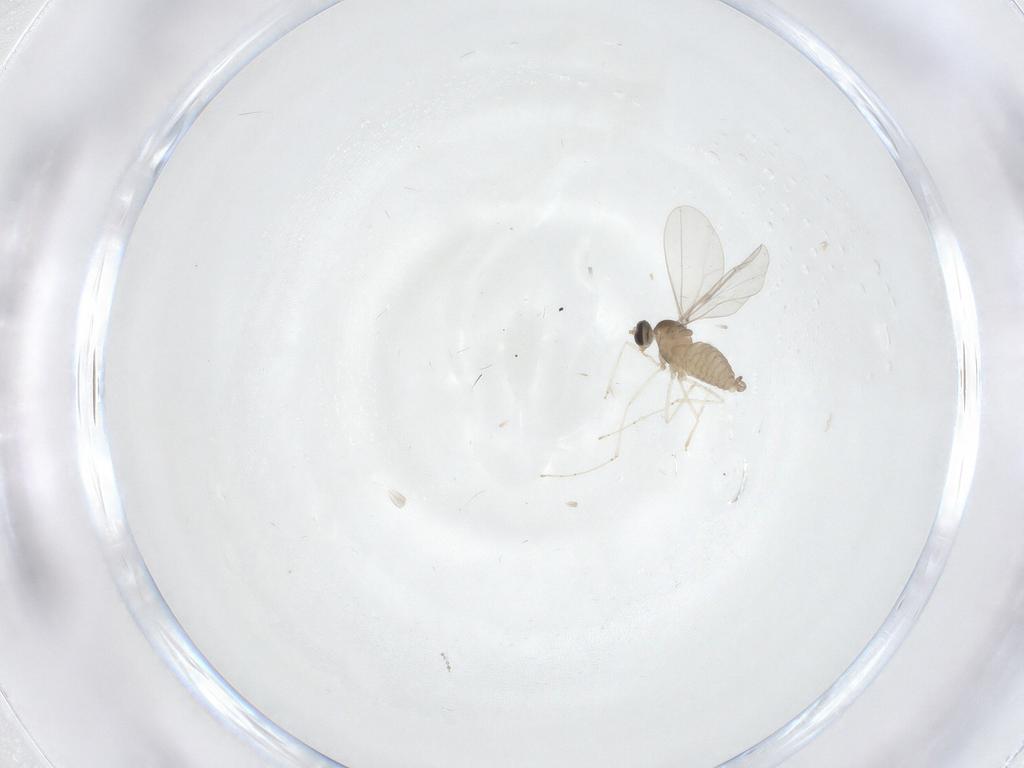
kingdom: Animalia
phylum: Arthropoda
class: Insecta
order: Diptera
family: Cecidomyiidae
